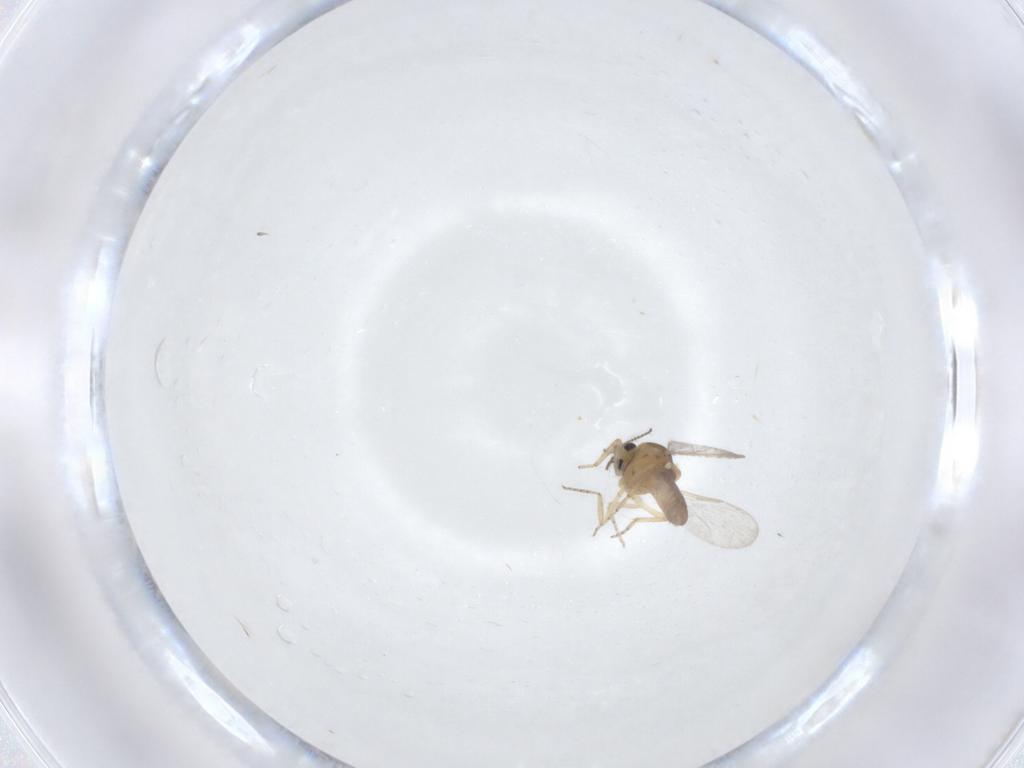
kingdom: Animalia
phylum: Arthropoda
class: Insecta
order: Diptera
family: Ceratopogonidae
